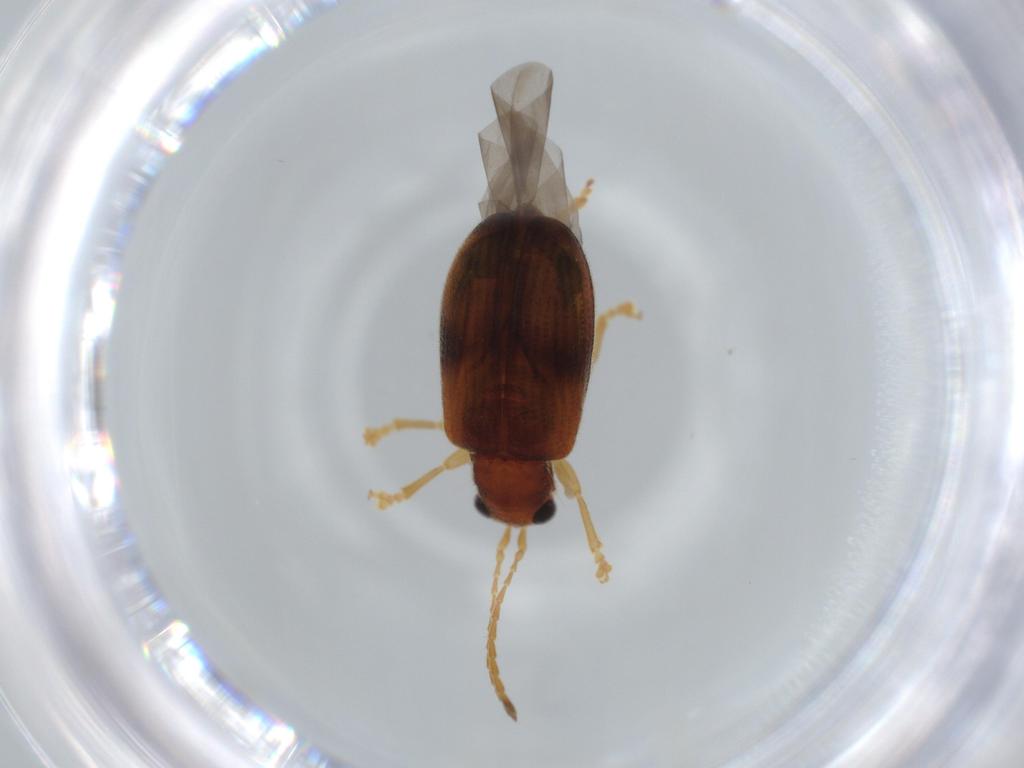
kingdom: Animalia
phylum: Arthropoda
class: Insecta
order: Coleoptera
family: Chrysomelidae
